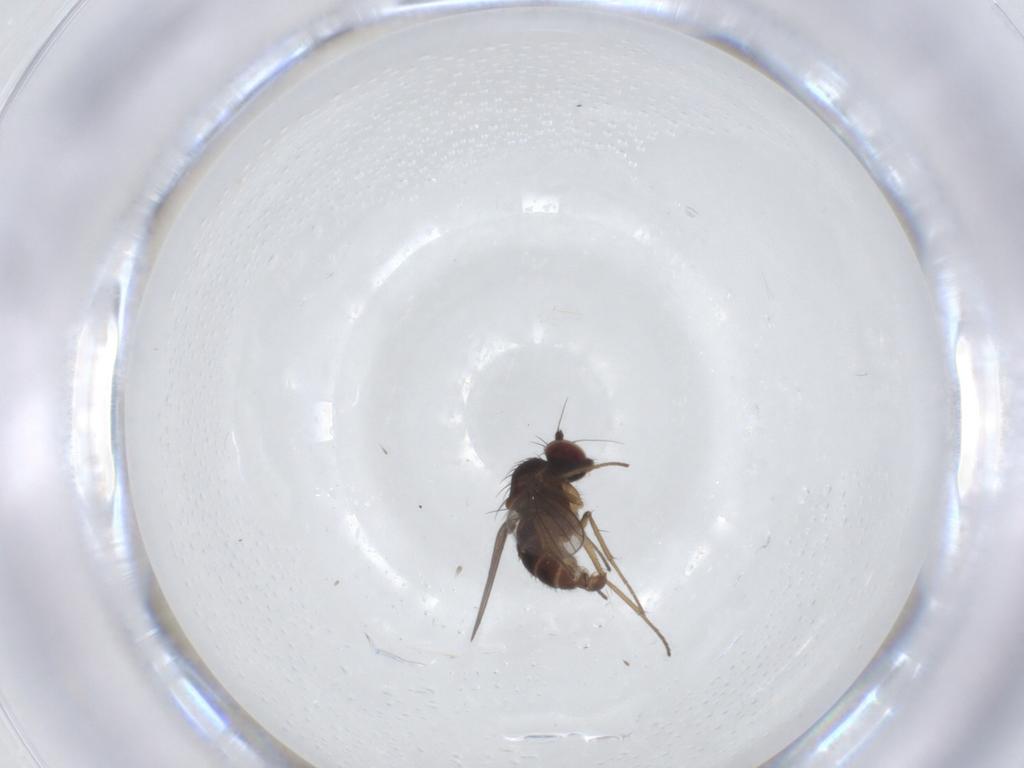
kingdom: Animalia
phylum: Arthropoda
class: Insecta
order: Diptera
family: Dolichopodidae
